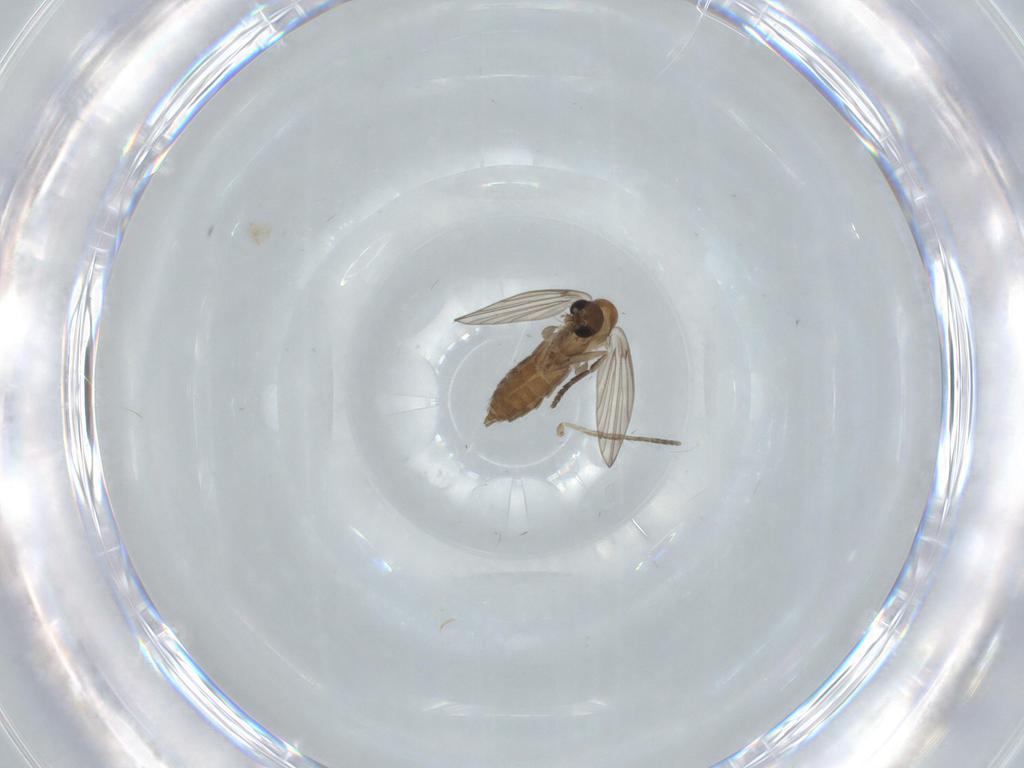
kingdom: Animalia
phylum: Arthropoda
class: Insecta
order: Diptera
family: Psychodidae
